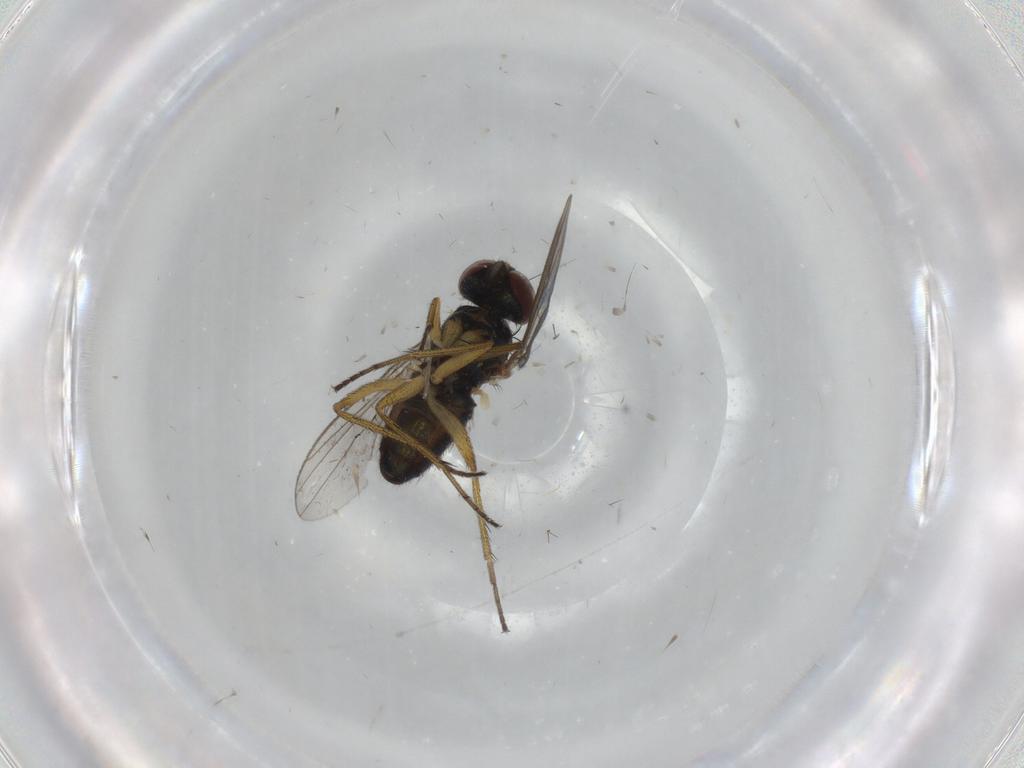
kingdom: Animalia
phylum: Arthropoda
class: Insecta
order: Diptera
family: Dolichopodidae
